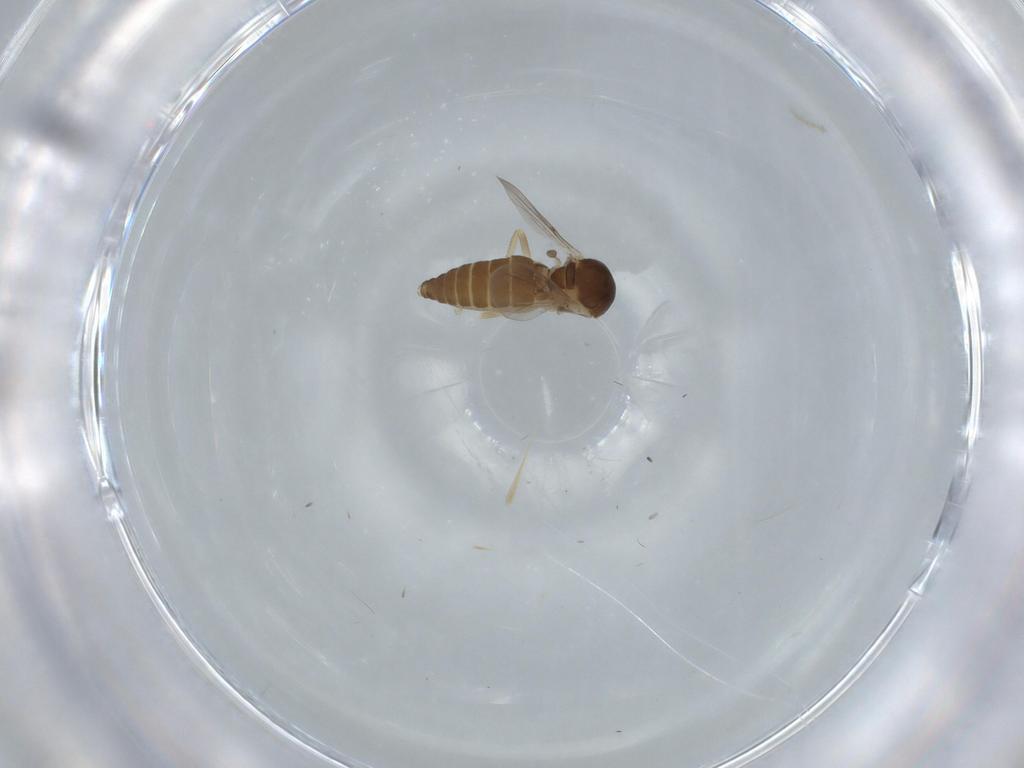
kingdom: Animalia
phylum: Arthropoda
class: Insecta
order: Diptera
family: Ceratopogonidae
